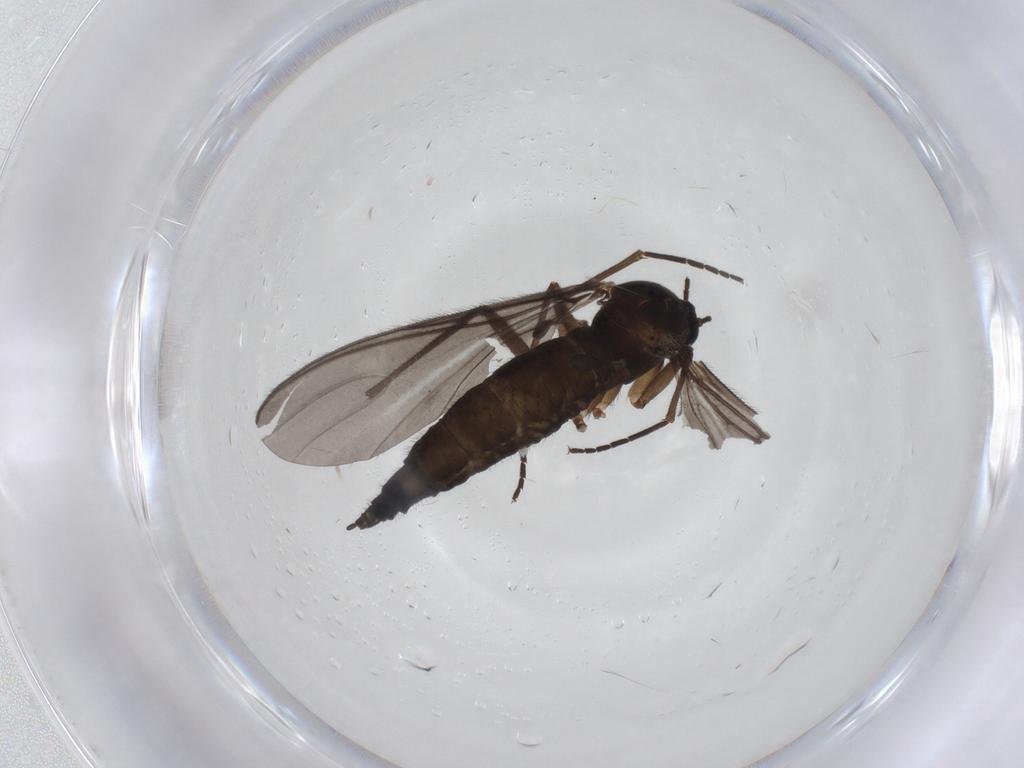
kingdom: Animalia
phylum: Arthropoda
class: Insecta
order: Diptera
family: Sciaridae
